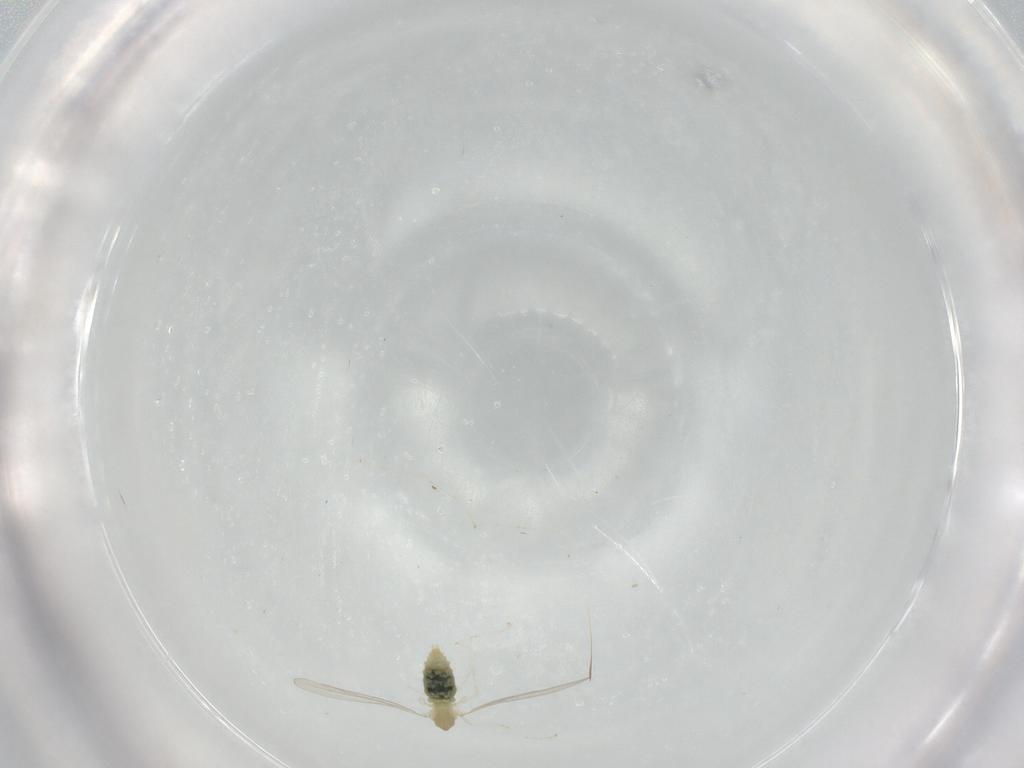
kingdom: Animalia
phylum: Arthropoda
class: Insecta
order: Diptera
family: Cecidomyiidae
